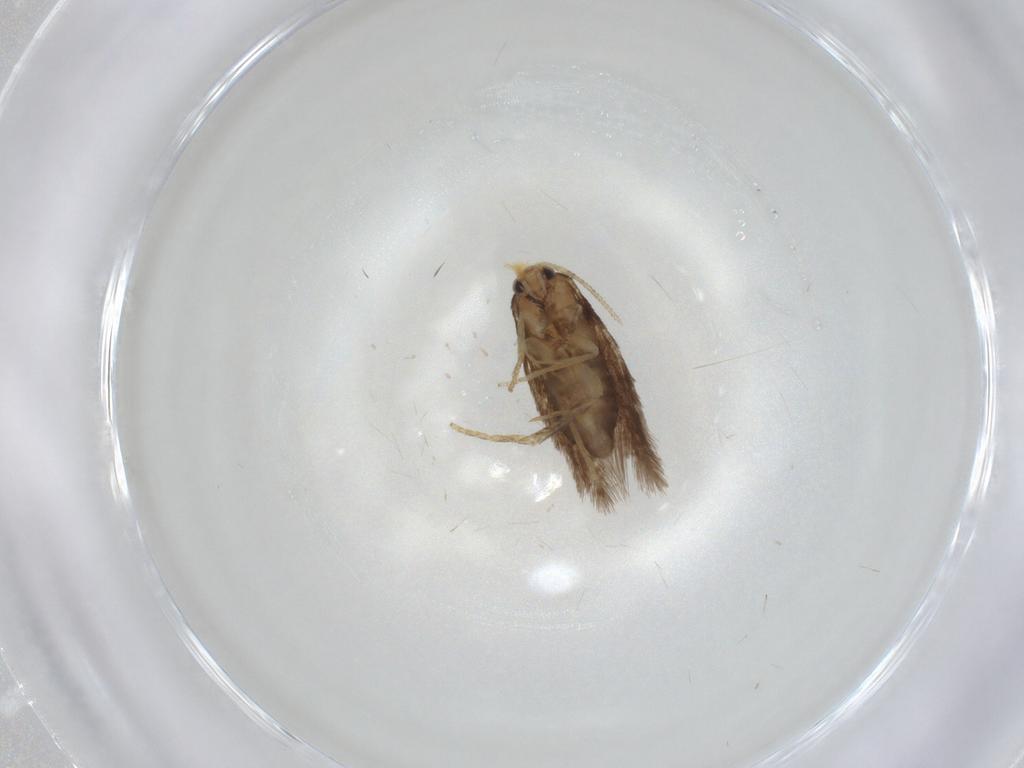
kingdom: Animalia
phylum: Arthropoda
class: Insecta
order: Lepidoptera
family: Nepticulidae
